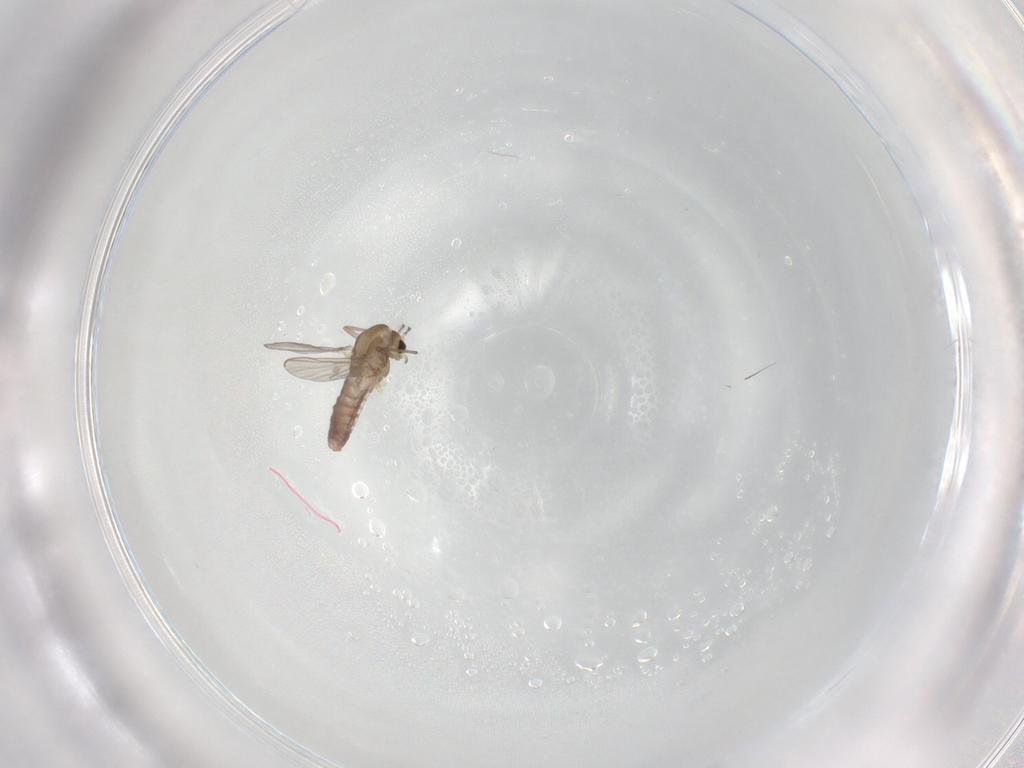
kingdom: Animalia
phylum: Arthropoda
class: Insecta
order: Diptera
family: Chironomidae
